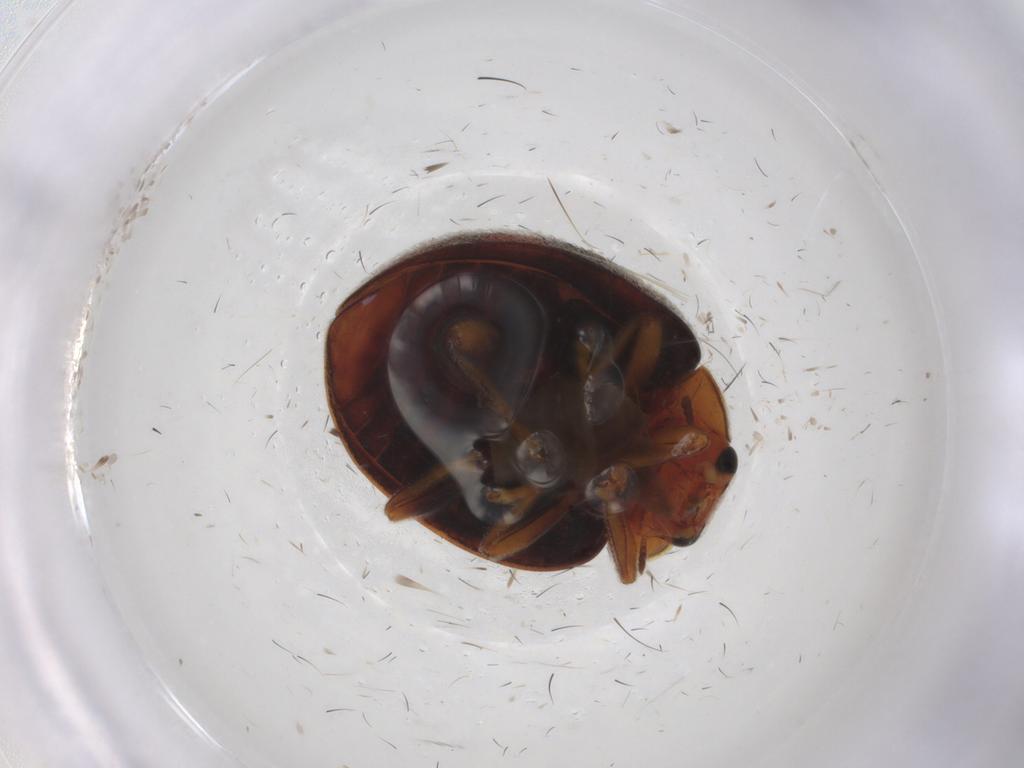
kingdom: Animalia
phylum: Arthropoda
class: Insecta
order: Coleoptera
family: Coccinellidae
